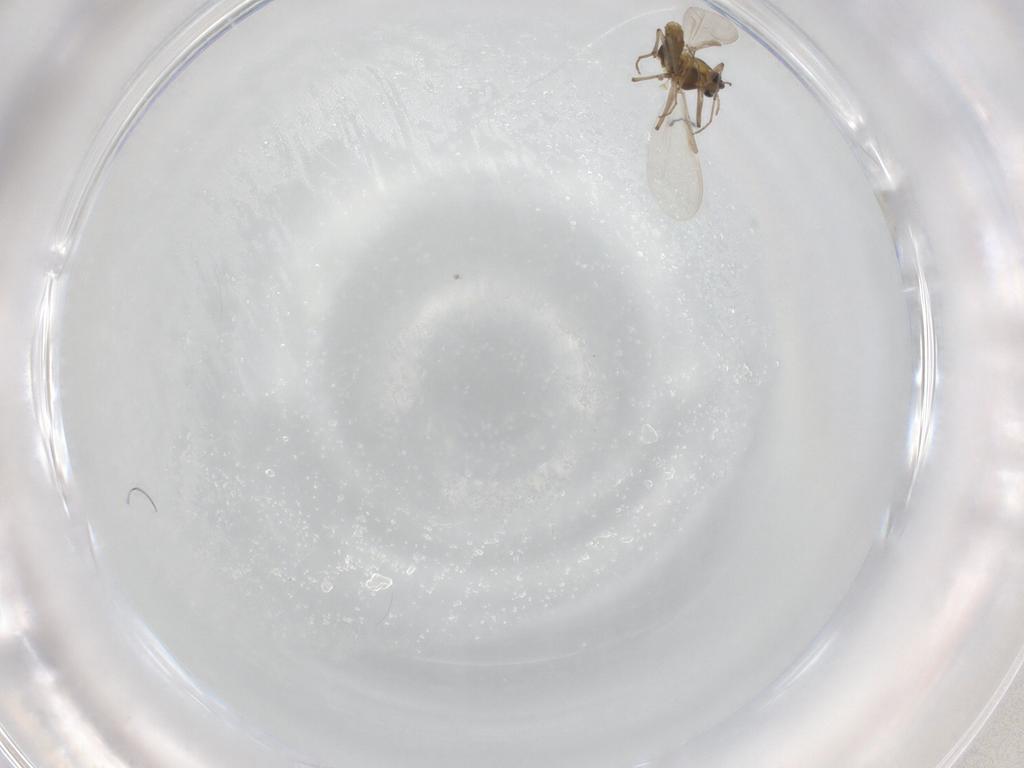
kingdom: Animalia
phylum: Arthropoda
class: Insecta
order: Diptera
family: Chironomidae
